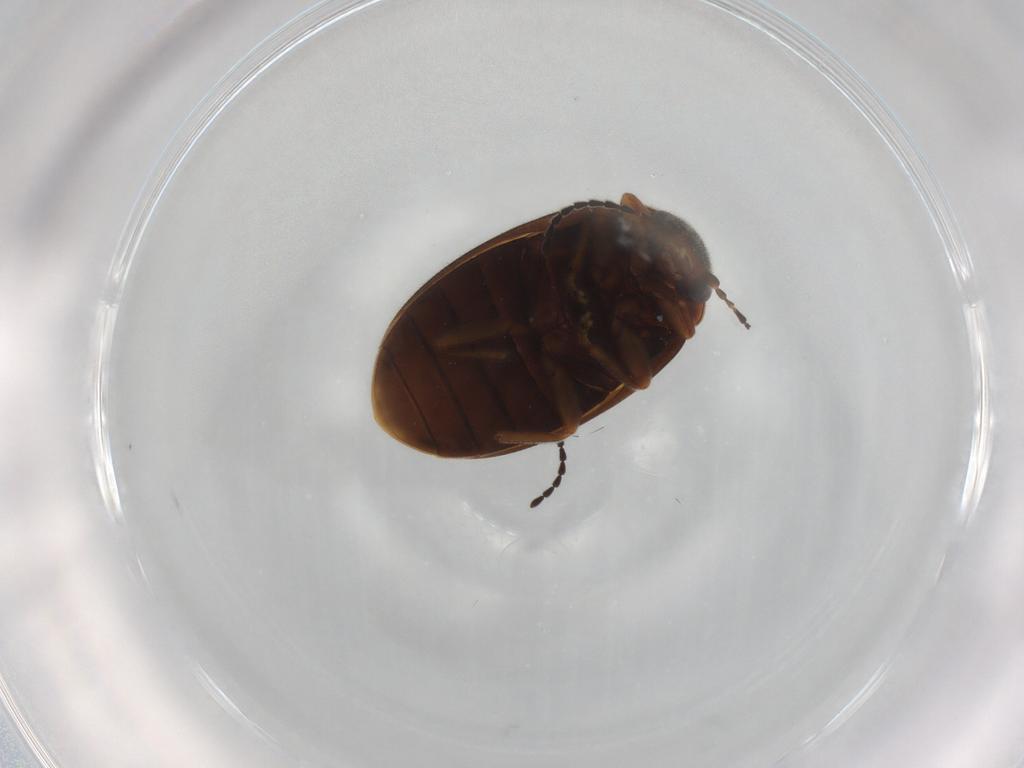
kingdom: Animalia
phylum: Arthropoda
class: Insecta
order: Coleoptera
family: Scirtidae
